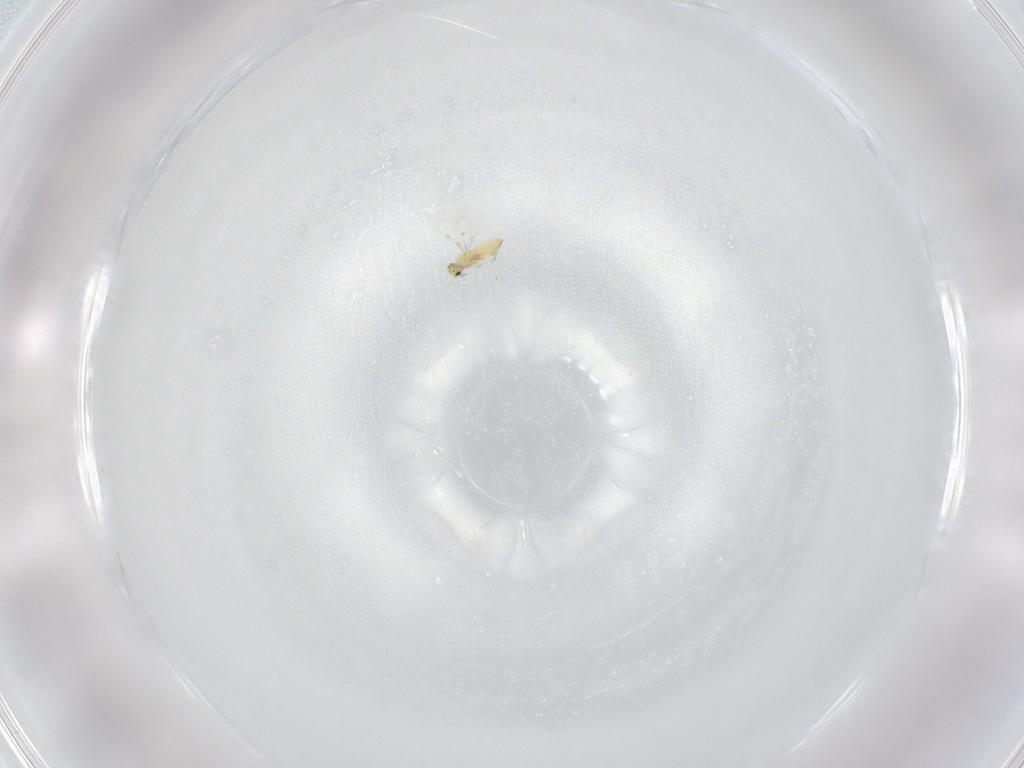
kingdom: Animalia
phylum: Arthropoda
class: Insecta
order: Hymenoptera
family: Trichogrammatidae
